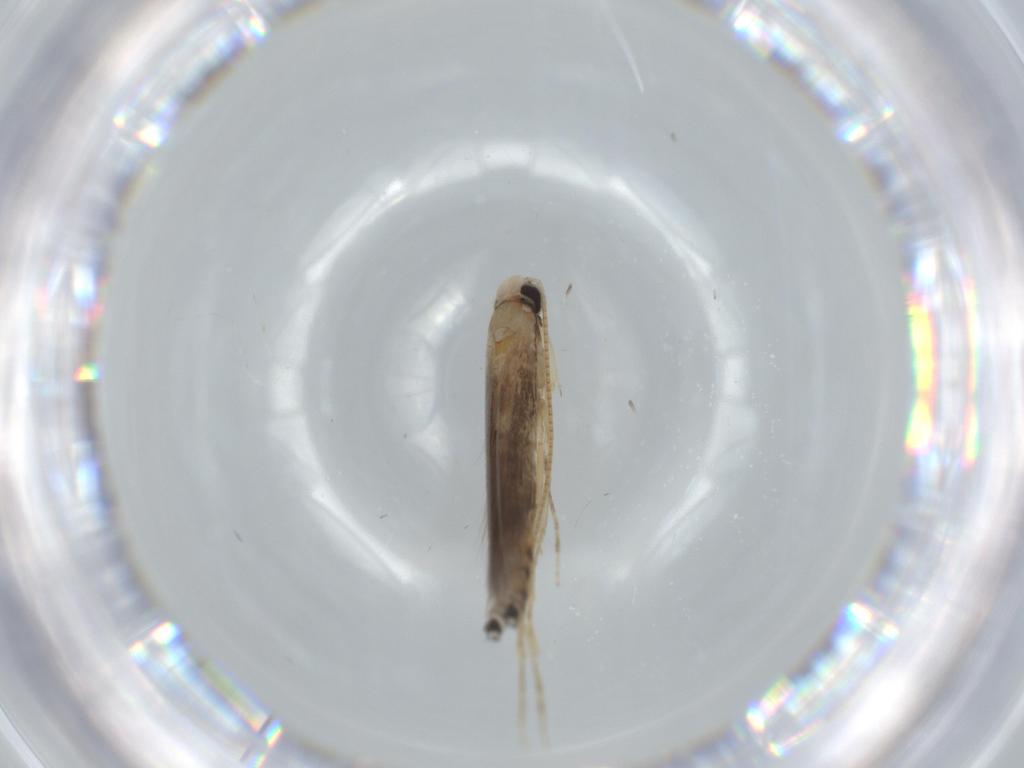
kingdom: Animalia
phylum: Arthropoda
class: Insecta
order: Lepidoptera
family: Gracillariidae
